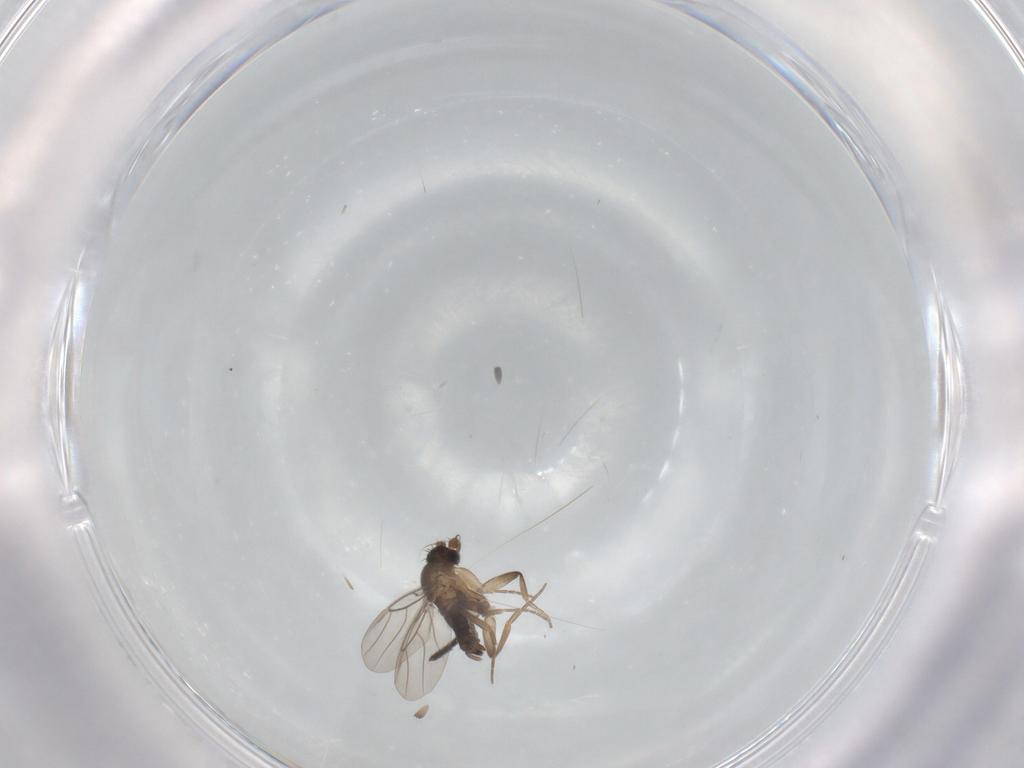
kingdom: Animalia
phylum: Arthropoda
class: Insecta
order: Diptera
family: Phoridae
